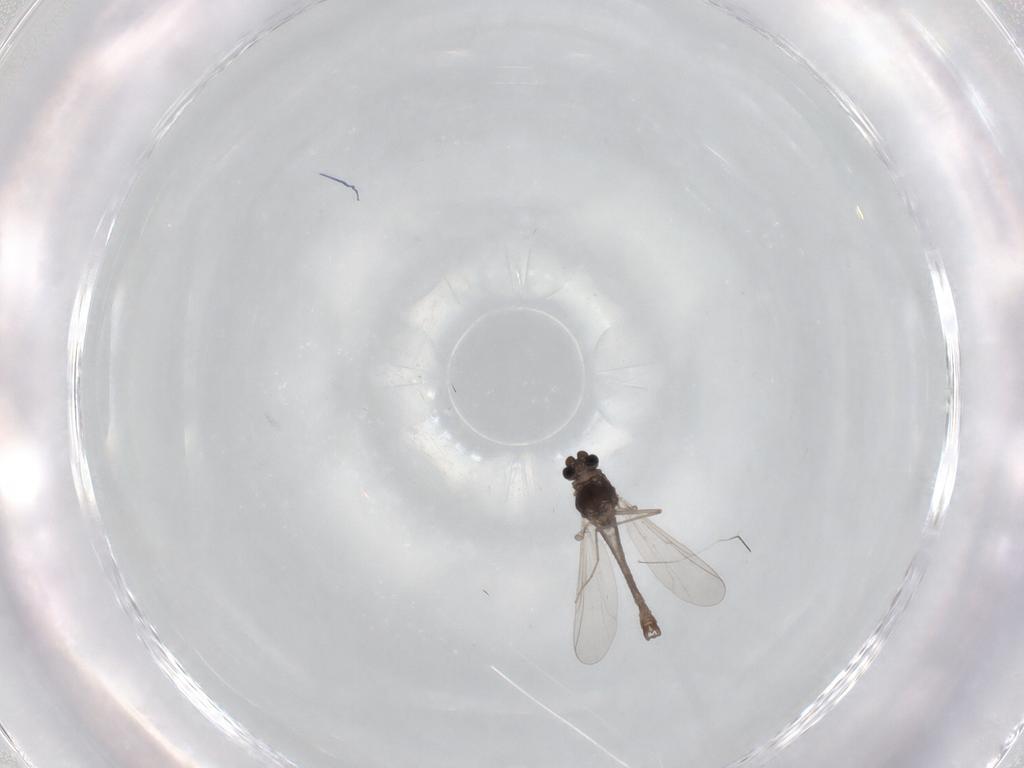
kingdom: Animalia
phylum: Arthropoda
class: Insecta
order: Diptera
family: Chironomidae
